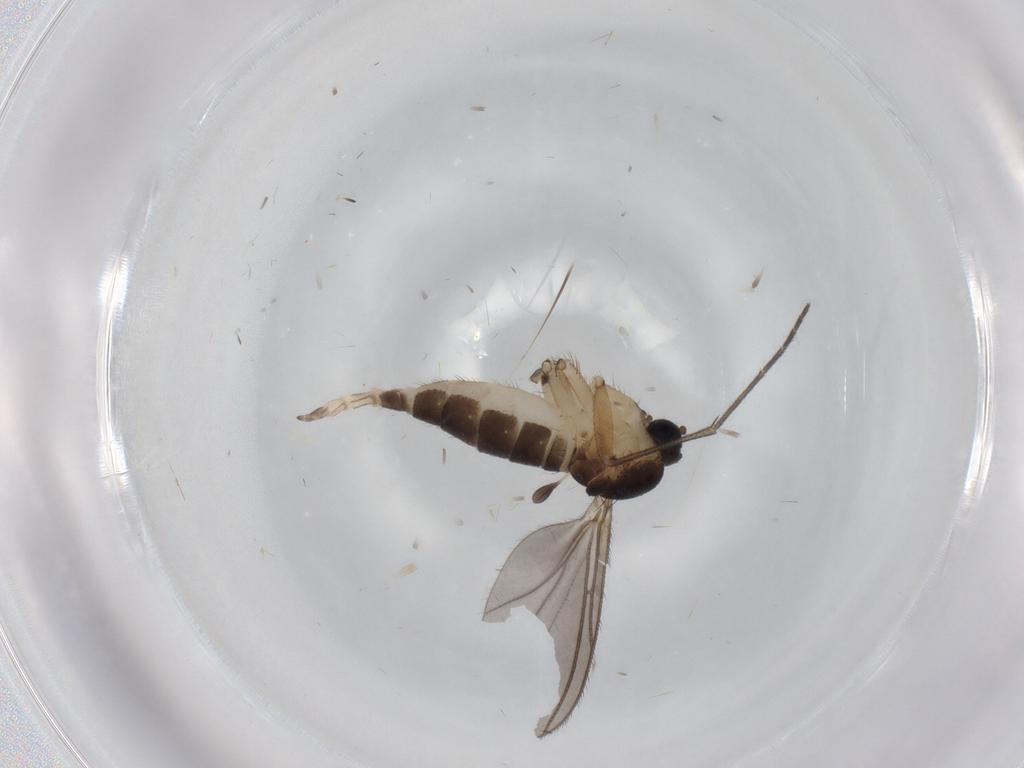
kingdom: Animalia
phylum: Arthropoda
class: Insecta
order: Diptera
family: Sciaridae
